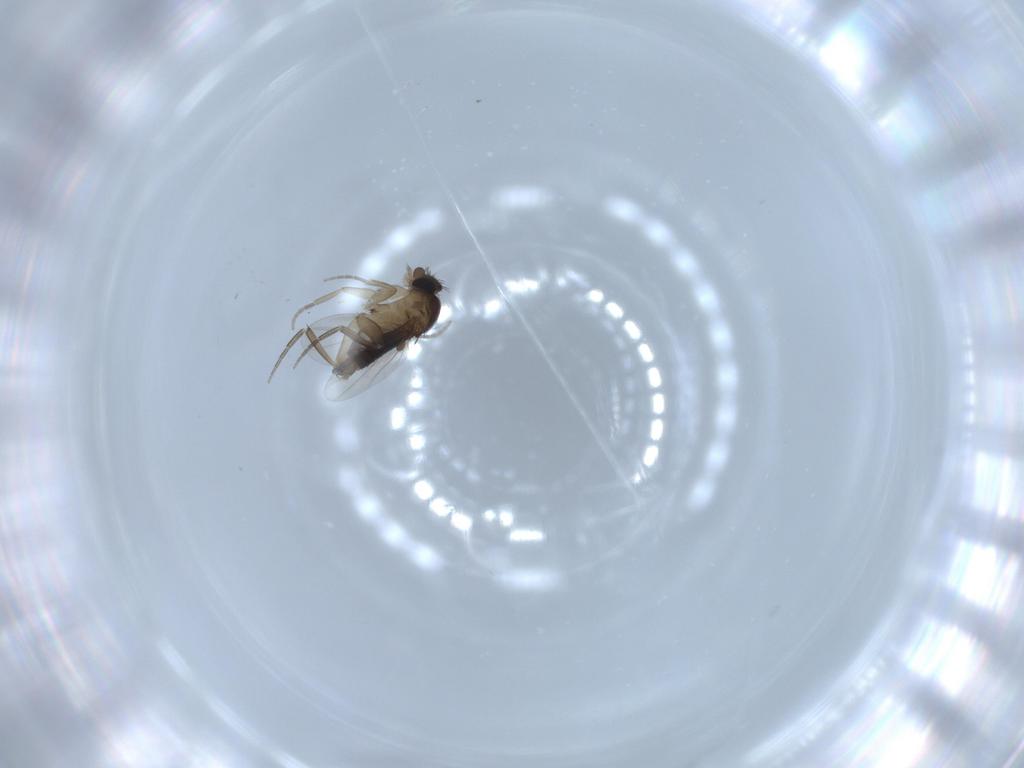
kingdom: Animalia
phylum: Arthropoda
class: Insecta
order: Diptera
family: Phoridae
